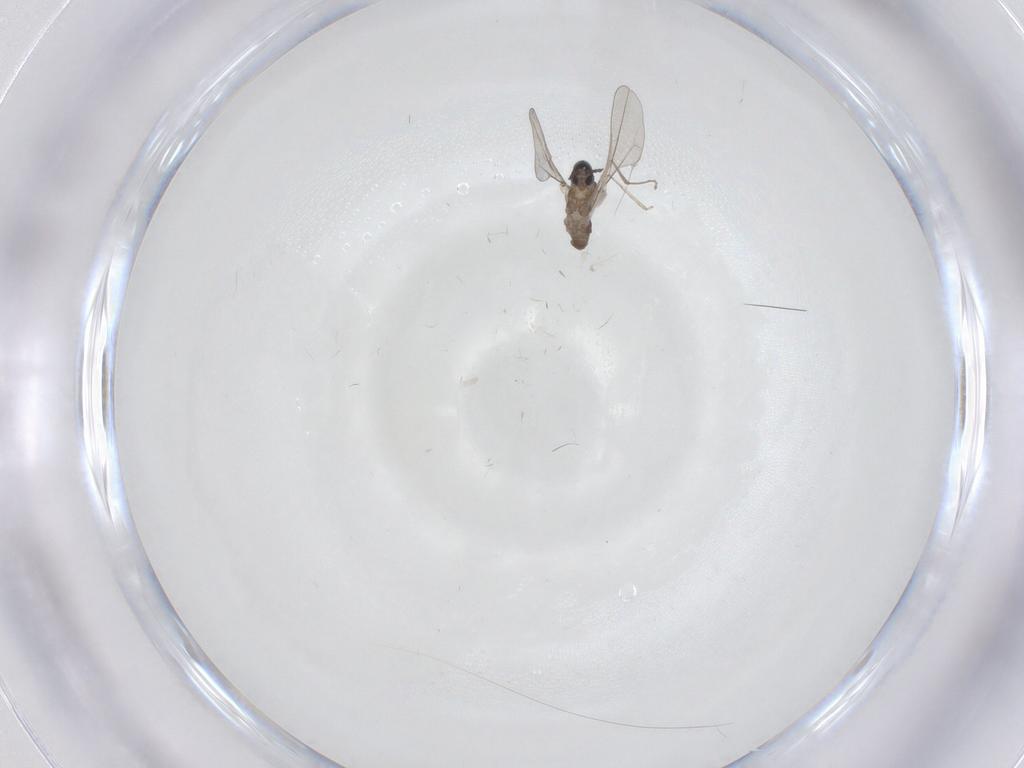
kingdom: Animalia
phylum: Arthropoda
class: Insecta
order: Diptera
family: Cecidomyiidae
